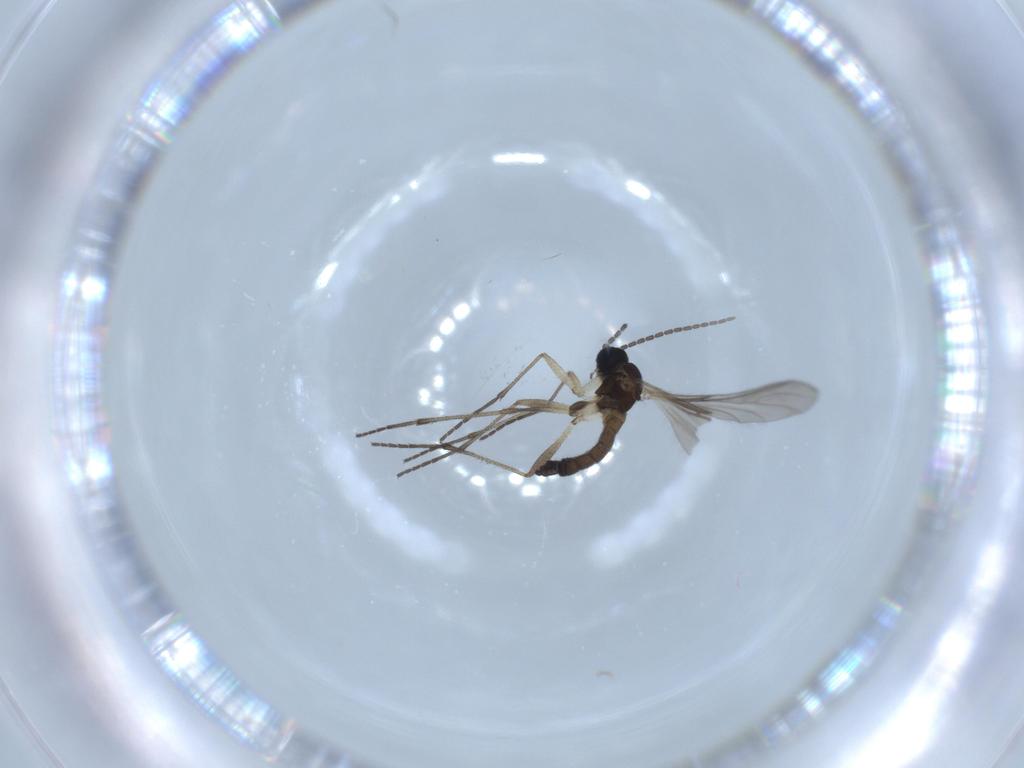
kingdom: Animalia
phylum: Arthropoda
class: Insecta
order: Diptera
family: Sciaridae
